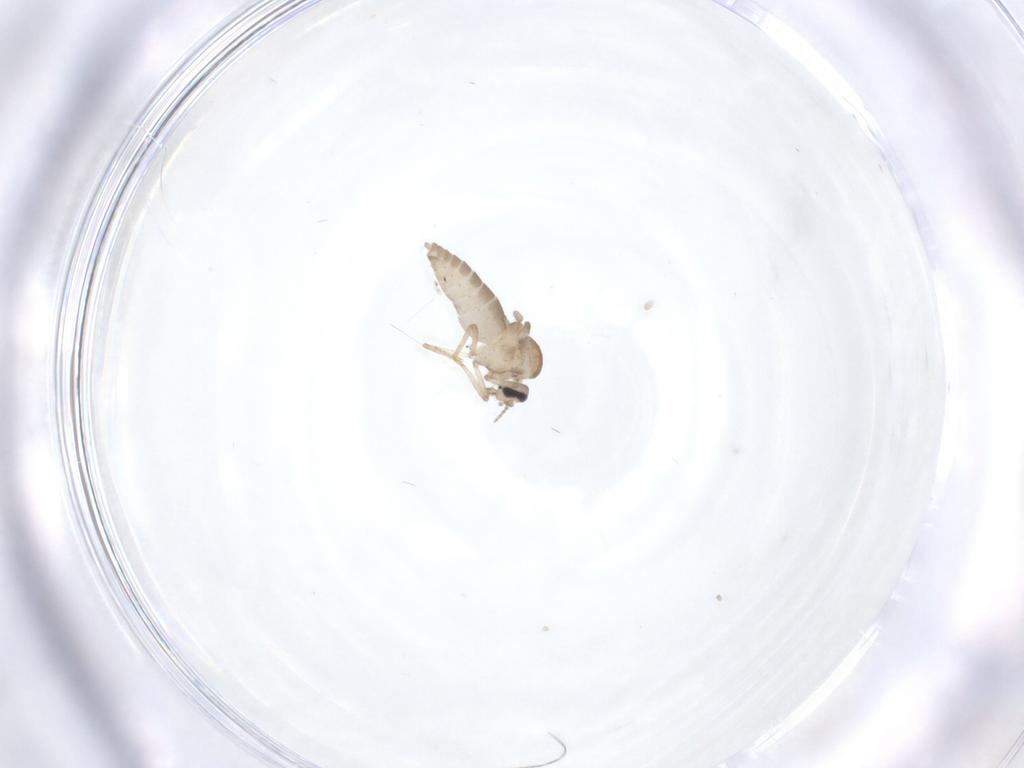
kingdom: Animalia
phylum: Arthropoda
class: Insecta
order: Diptera
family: Ceratopogonidae
